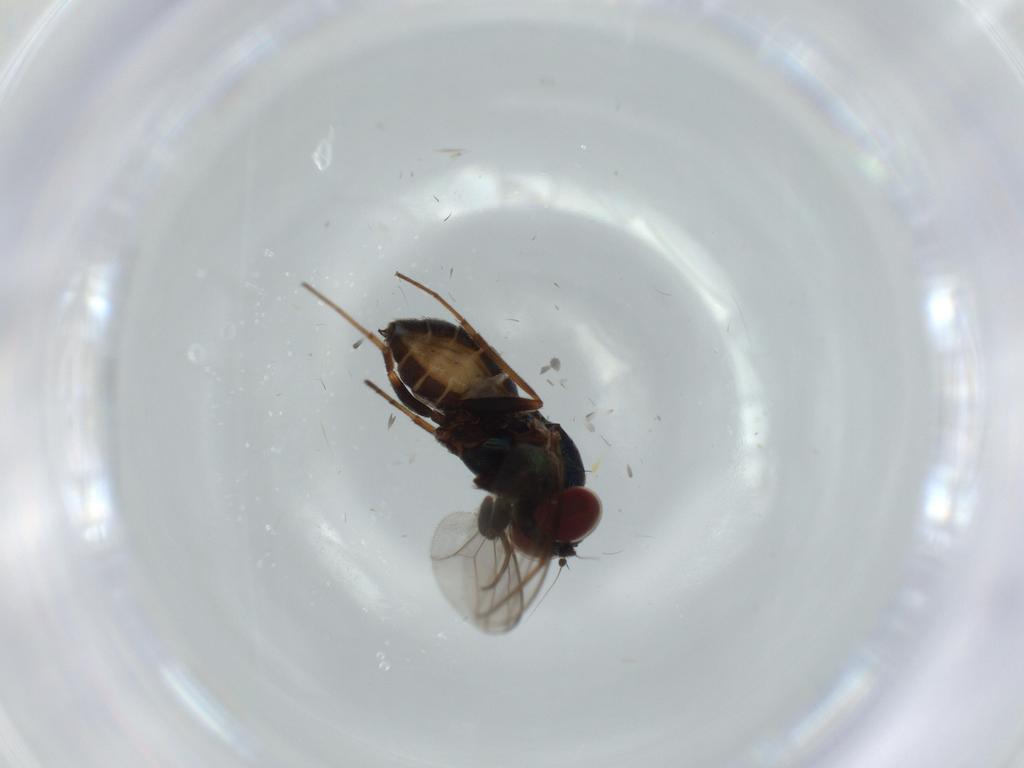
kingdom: Animalia
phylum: Arthropoda
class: Insecta
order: Diptera
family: Dolichopodidae
